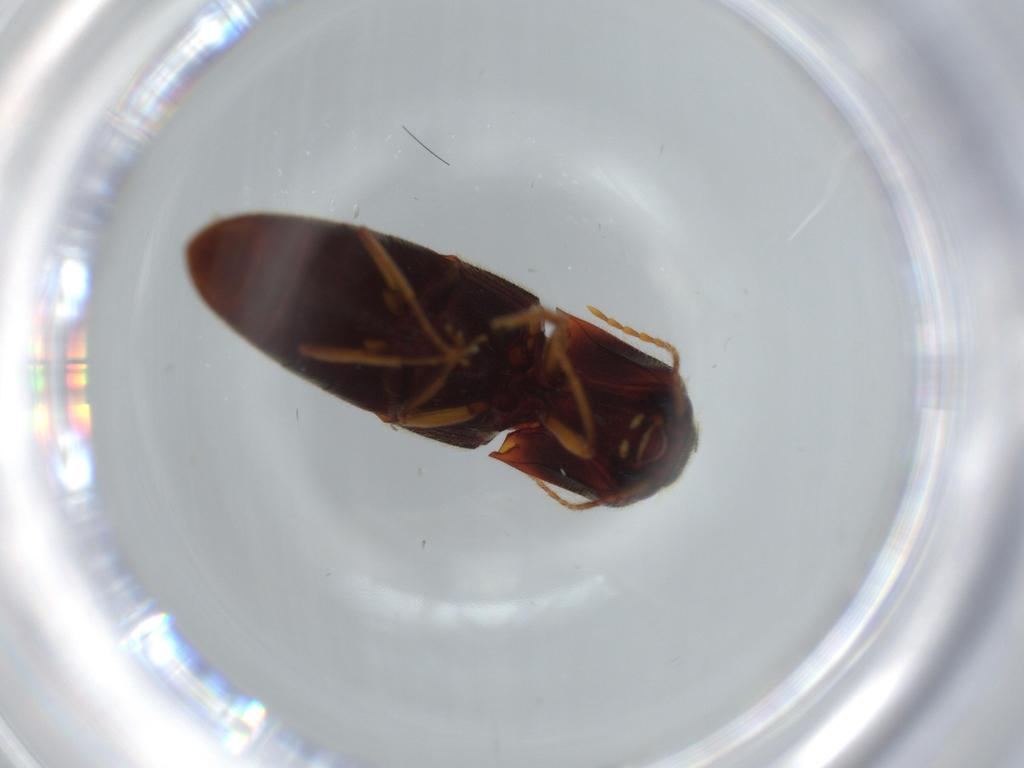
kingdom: Animalia
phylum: Arthropoda
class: Insecta
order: Coleoptera
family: Elateridae
